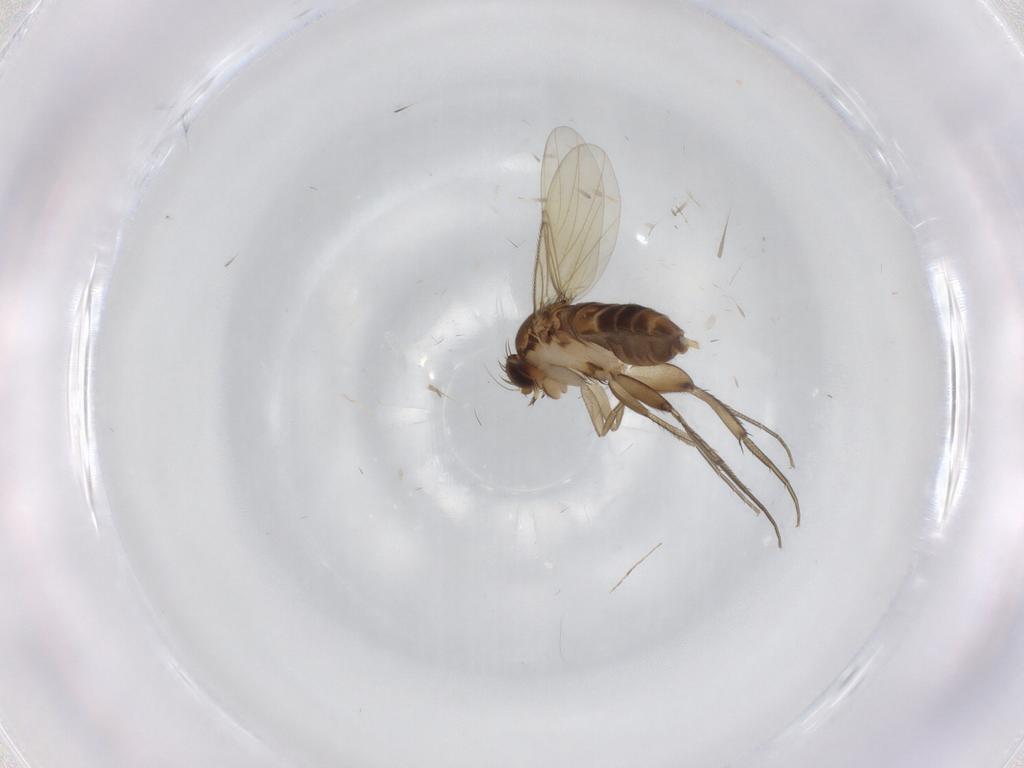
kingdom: Animalia
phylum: Arthropoda
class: Insecta
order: Diptera
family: Phoridae
